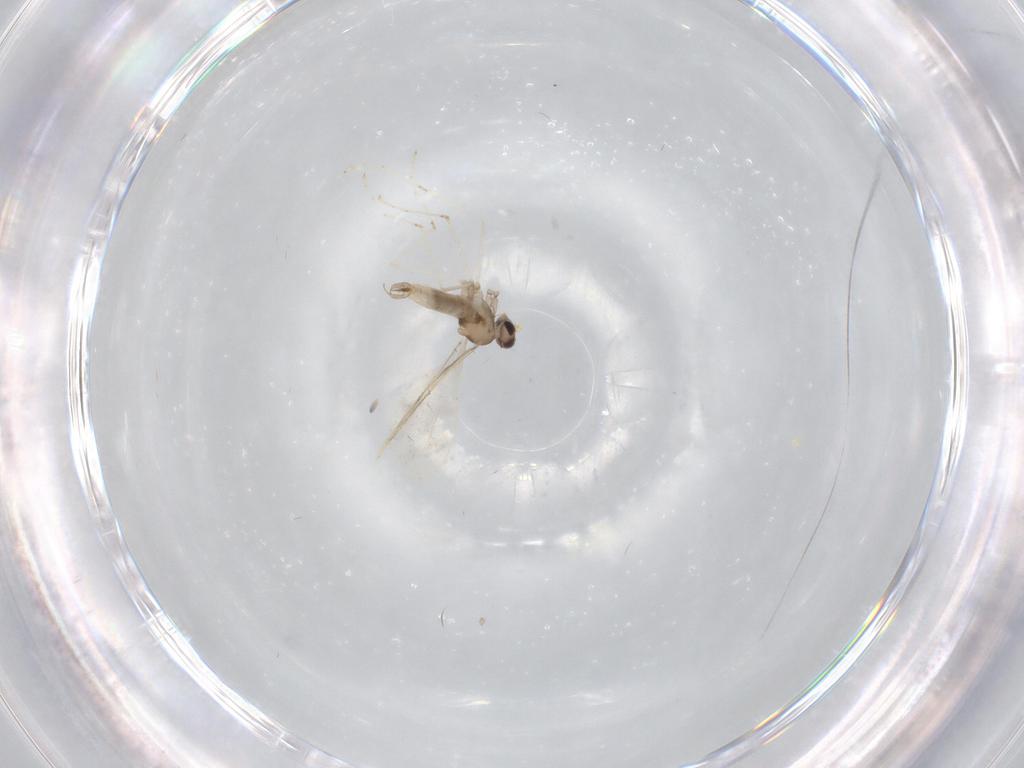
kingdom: Animalia
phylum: Arthropoda
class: Insecta
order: Diptera
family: Cecidomyiidae
